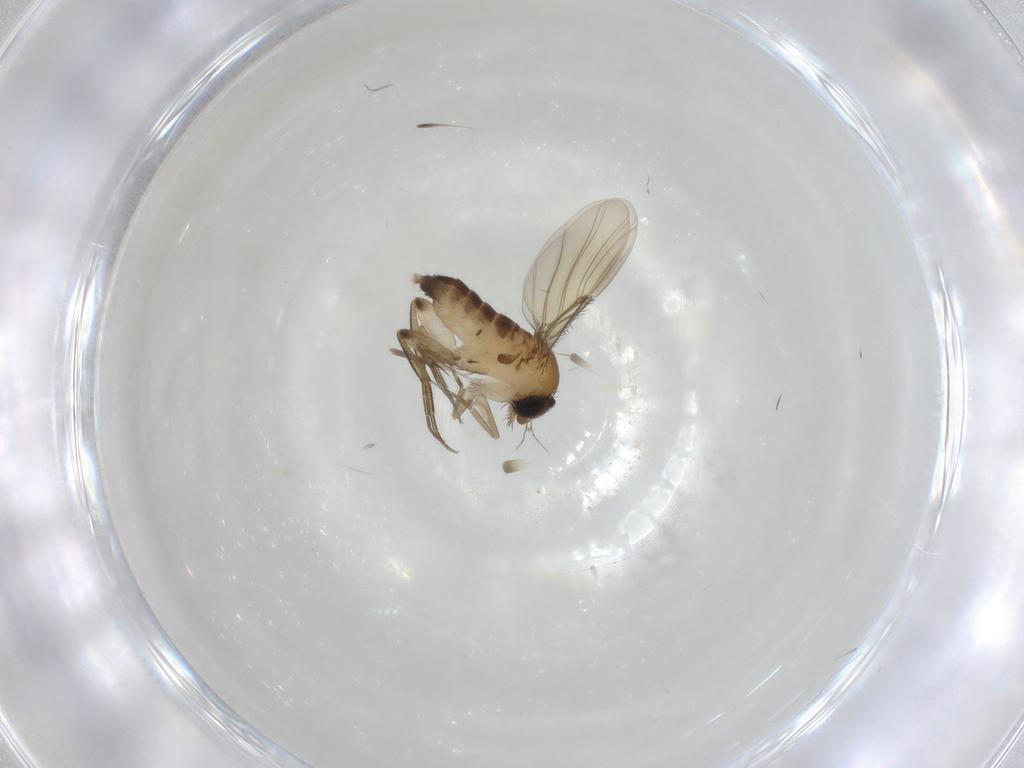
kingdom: Animalia
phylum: Arthropoda
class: Insecta
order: Diptera
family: Phoridae
